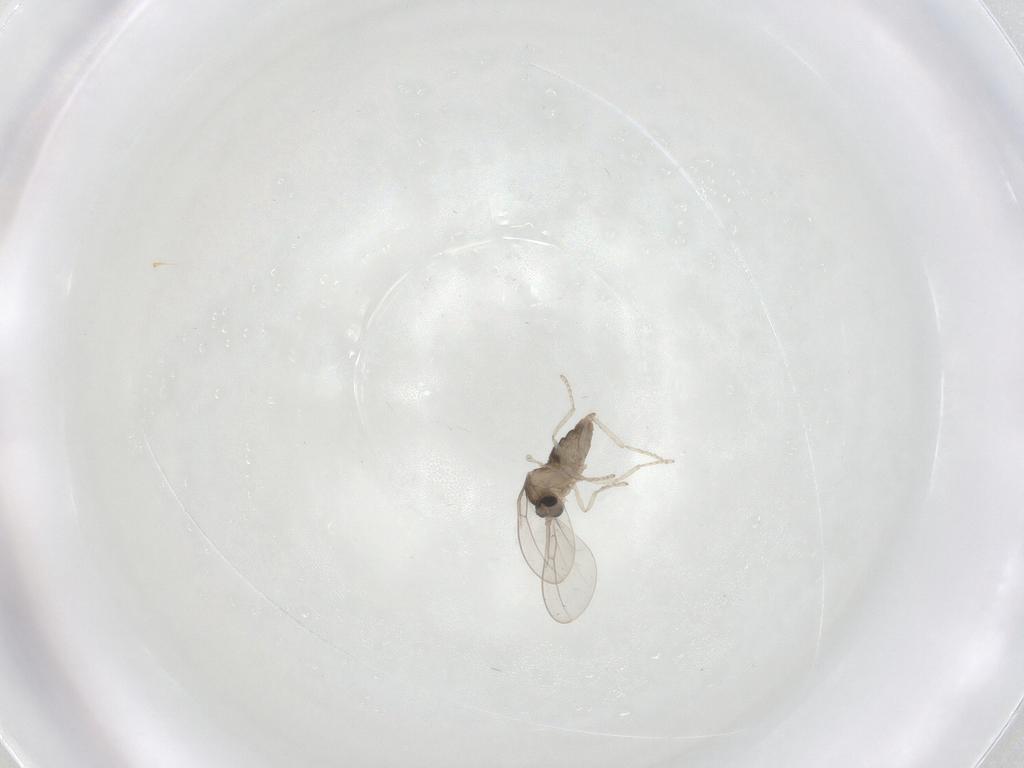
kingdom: Animalia
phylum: Arthropoda
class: Insecta
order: Diptera
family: Cecidomyiidae
